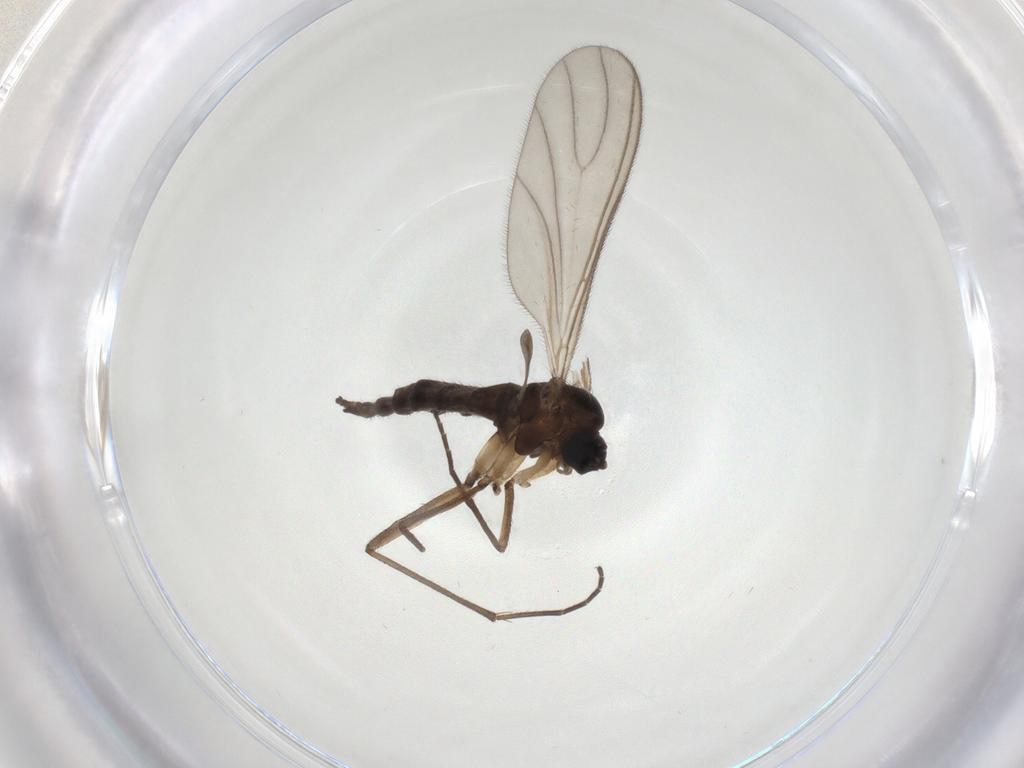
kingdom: Animalia
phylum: Arthropoda
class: Insecta
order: Diptera
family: Sciaridae
